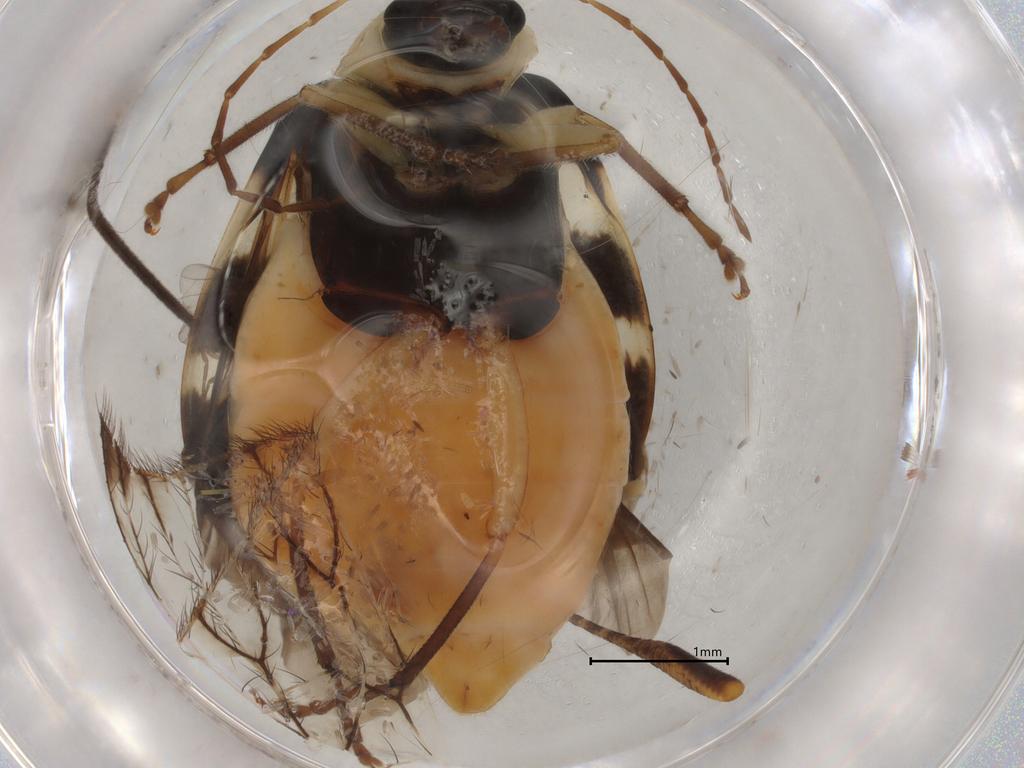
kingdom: Animalia
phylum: Arthropoda
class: Insecta
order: Coleoptera
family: Chrysomelidae
